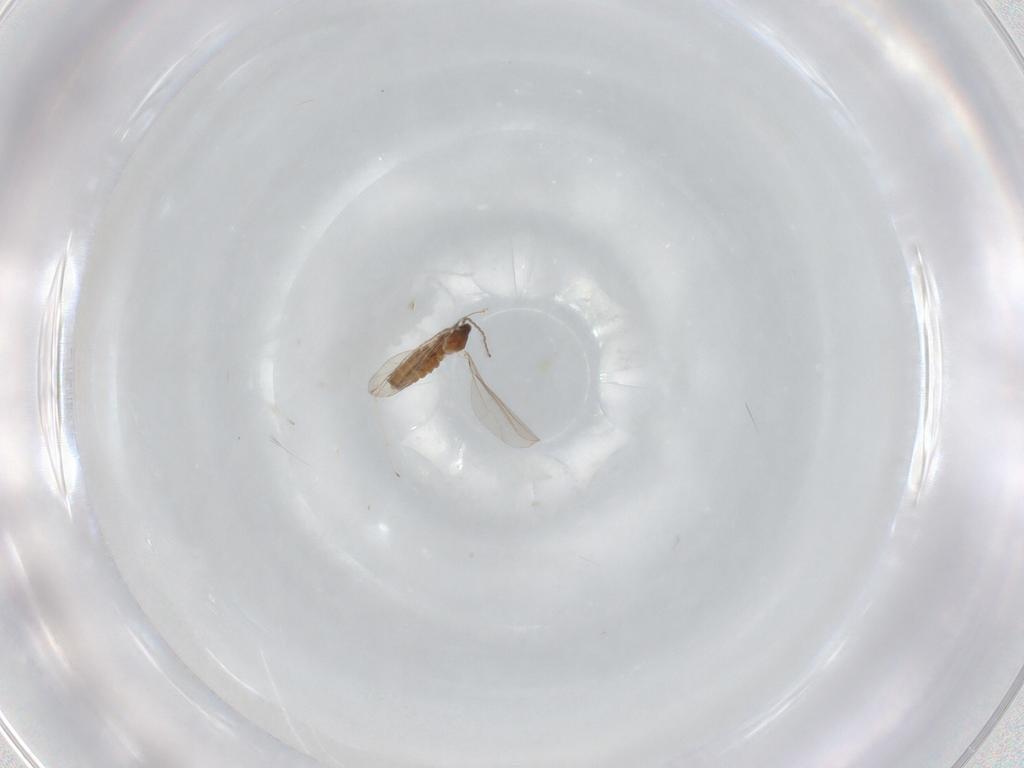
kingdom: Animalia
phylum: Arthropoda
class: Insecta
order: Diptera
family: Cecidomyiidae
